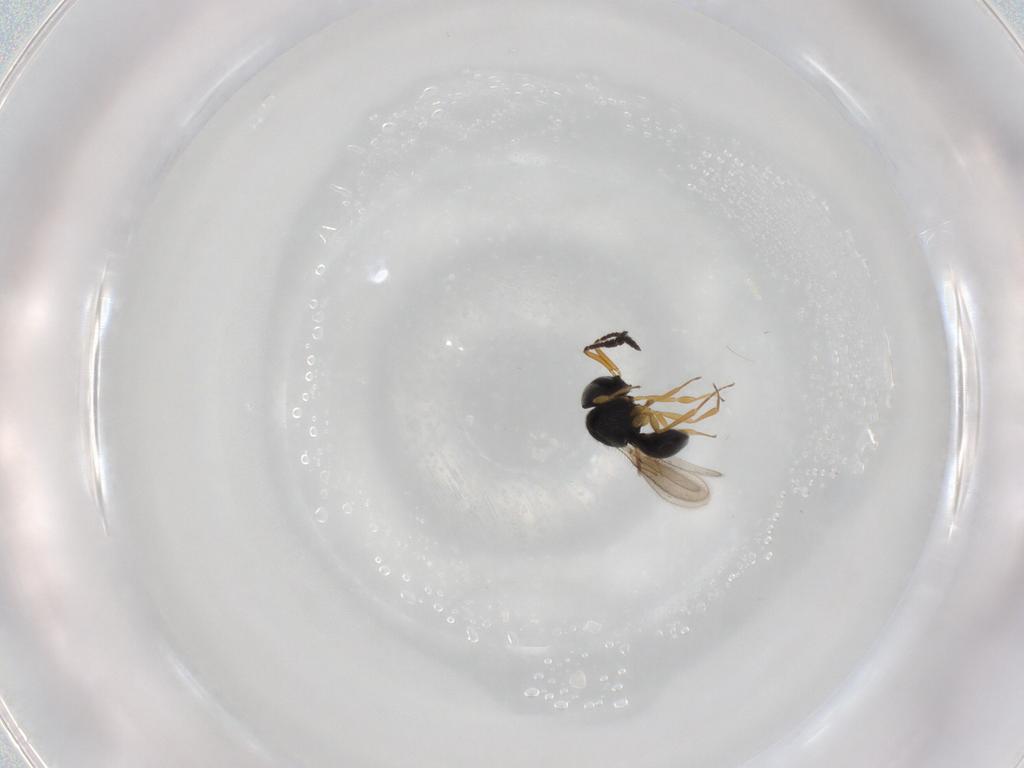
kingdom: Animalia
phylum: Arthropoda
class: Insecta
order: Hymenoptera
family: Scelionidae
